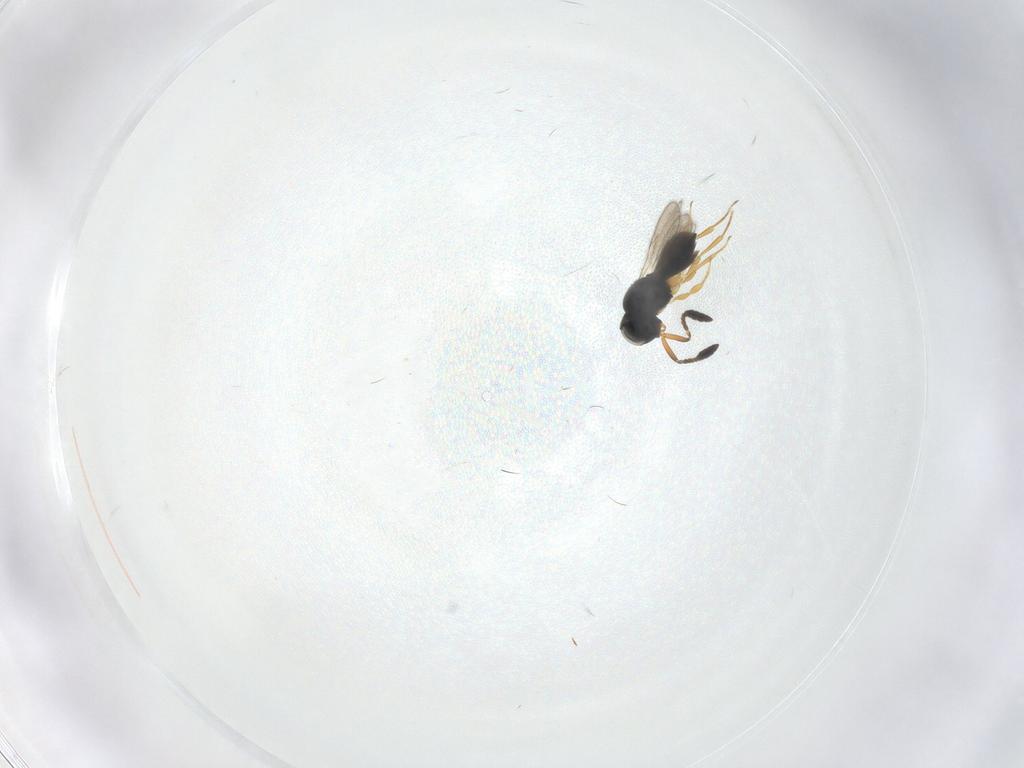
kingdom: Animalia
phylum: Arthropoda
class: Insecta
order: Hymenoptera
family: Scelionidae
